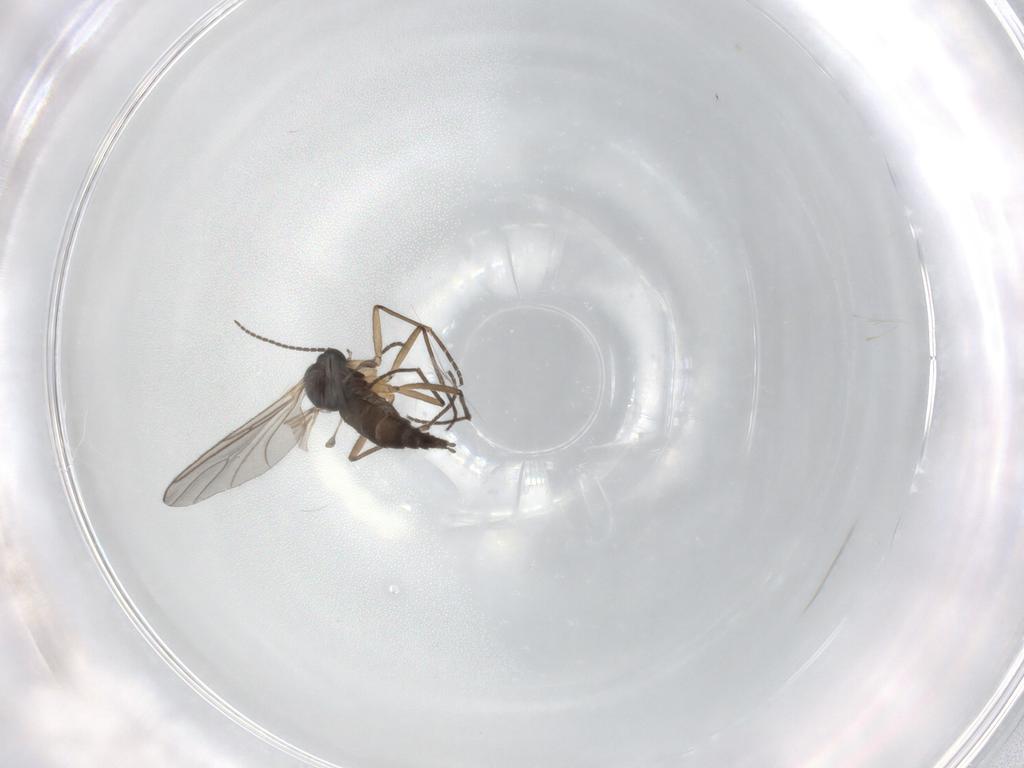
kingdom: Animalia
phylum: Arthropoda
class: Insecta
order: Diptera
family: Sciaridae
